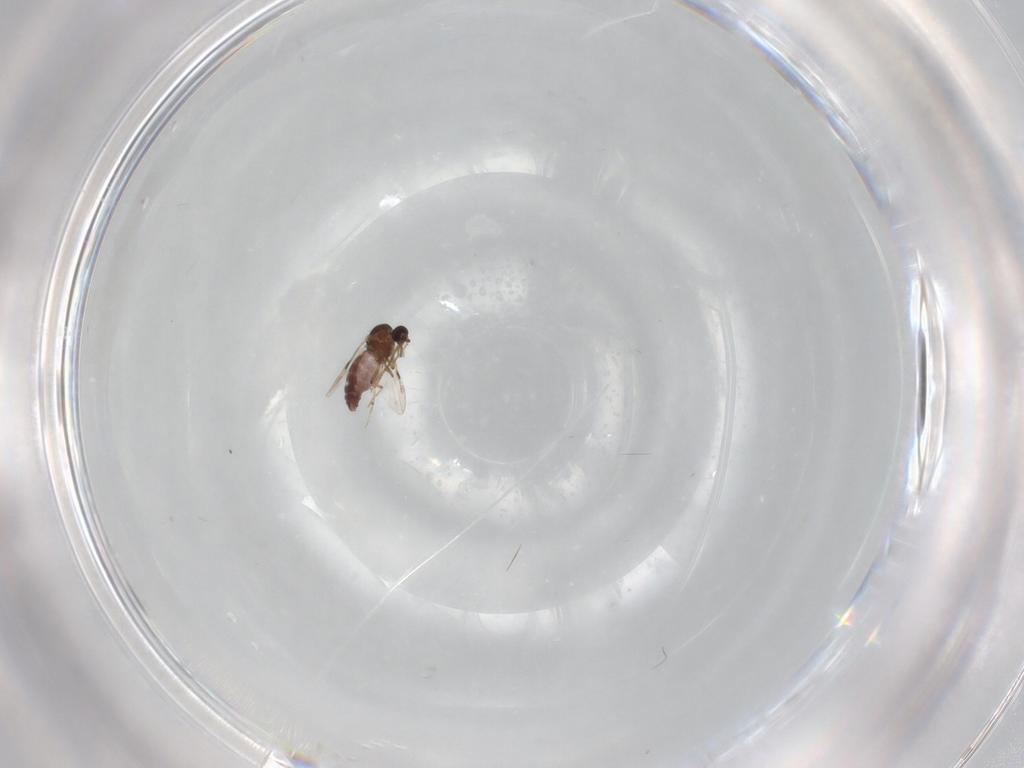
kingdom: Animalia
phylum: Arthropoda
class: Insecta
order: Diptera
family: Cecidomyiidae
